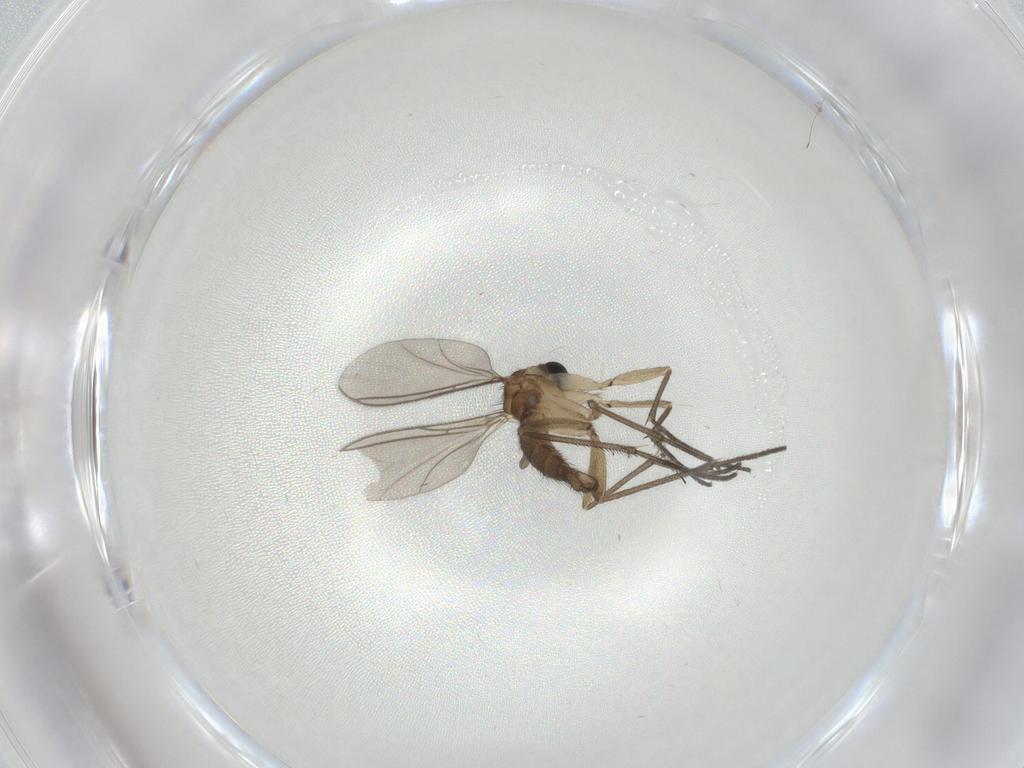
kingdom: Animalia
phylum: Arthropoda
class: Insecta
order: Diptera
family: Sciaridae
